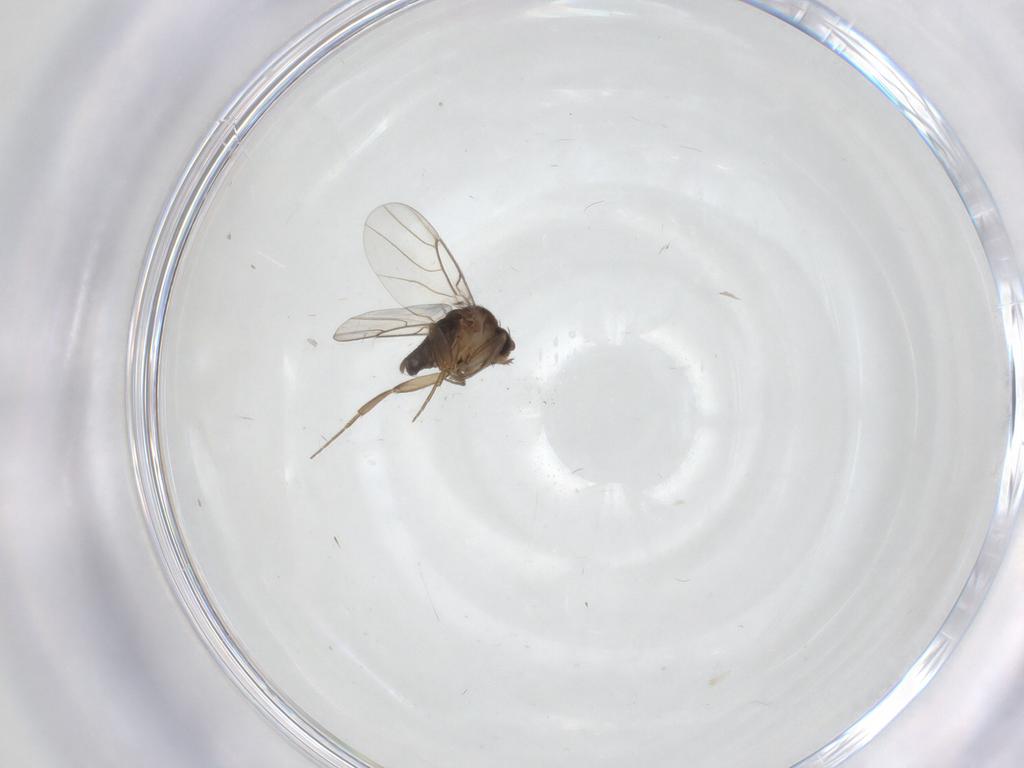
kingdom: Animalia
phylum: Arthropoda
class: Insecta
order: Diptera
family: Phoridae
